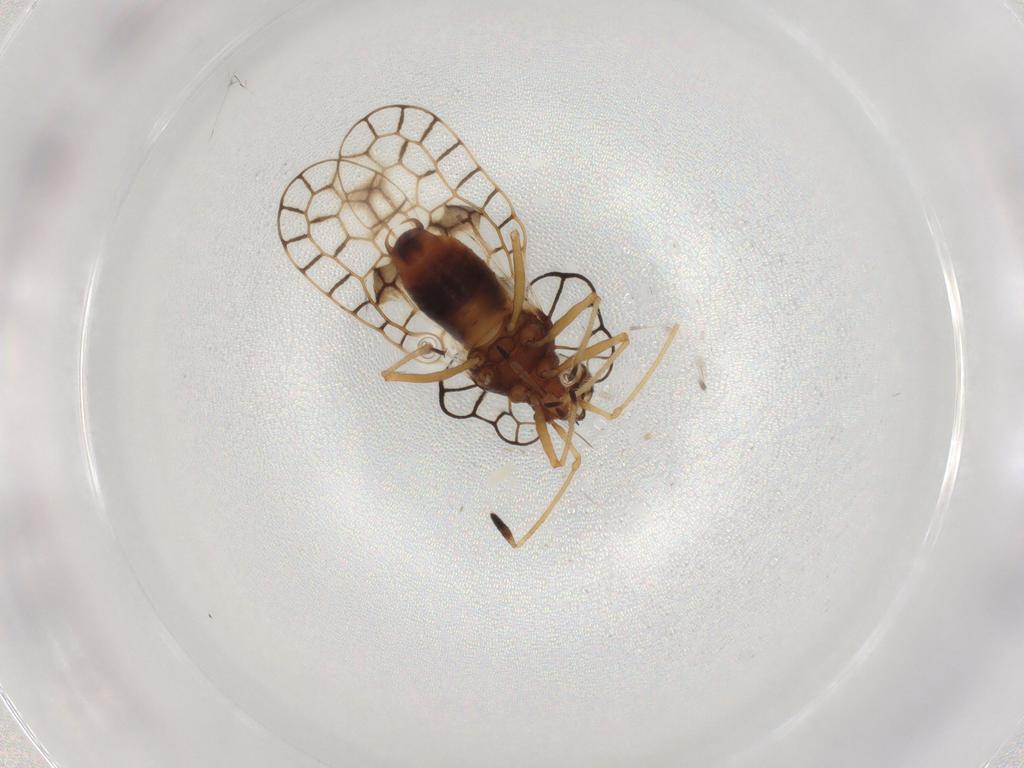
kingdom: Animalia
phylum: Arthropoda
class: Insecta
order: Hemiptera
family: Tingidae
